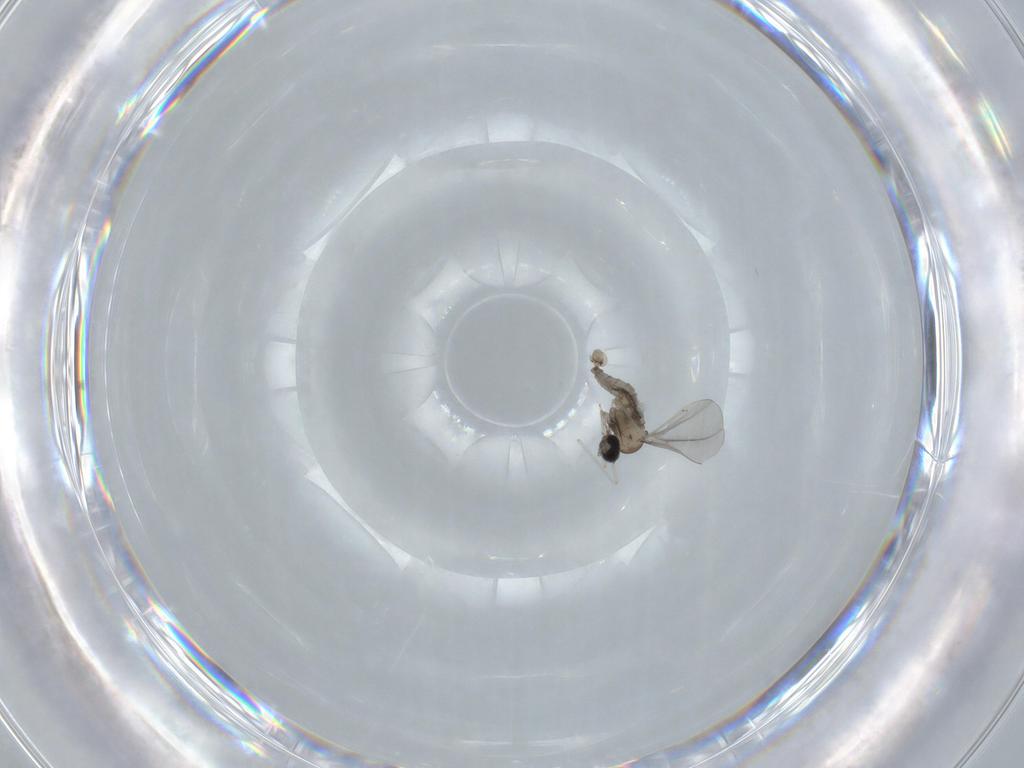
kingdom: Animalia
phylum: Arthropoda
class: Insecta
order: Diptera
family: Cecidomyiidae
